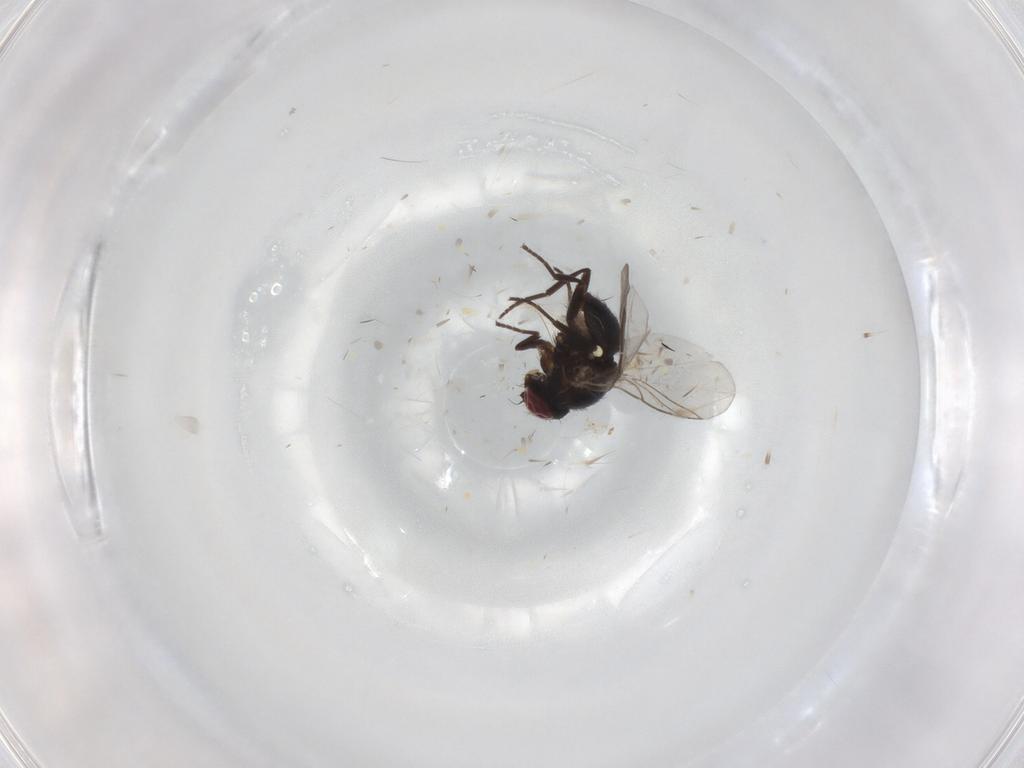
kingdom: Animalia
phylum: Arthropoda
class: Insecta
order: Diptera
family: Ceratopogonidae
